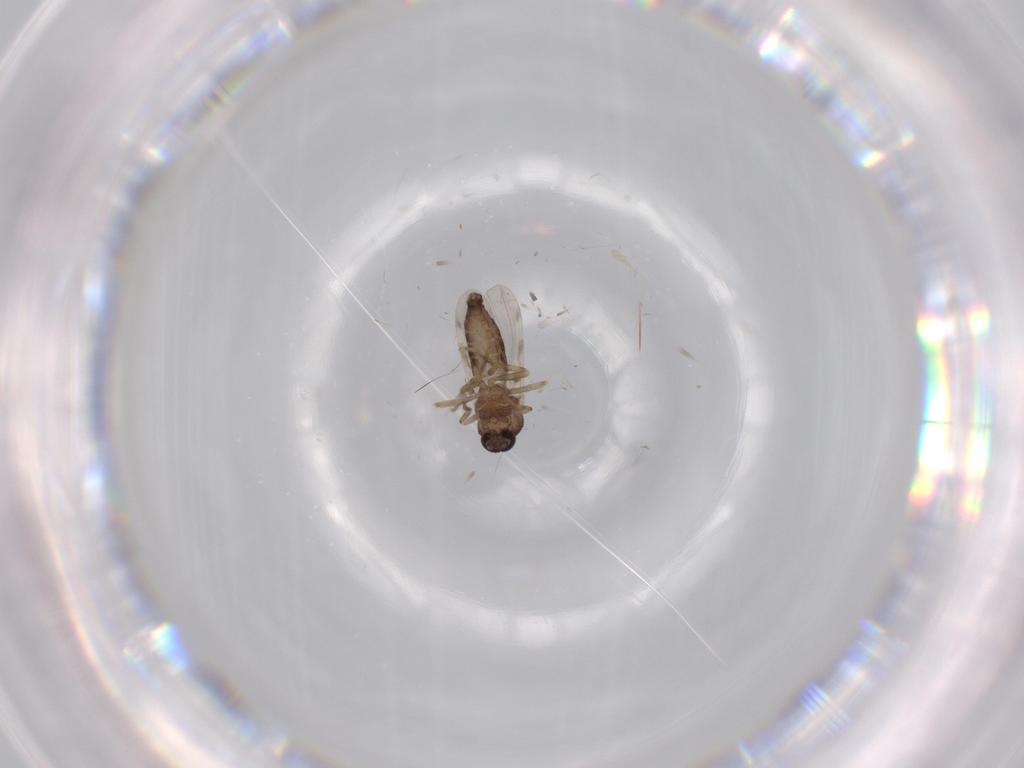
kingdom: Animalia
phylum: Arthropoda
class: Insecta
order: Diptera
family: Ceratopogonidae
